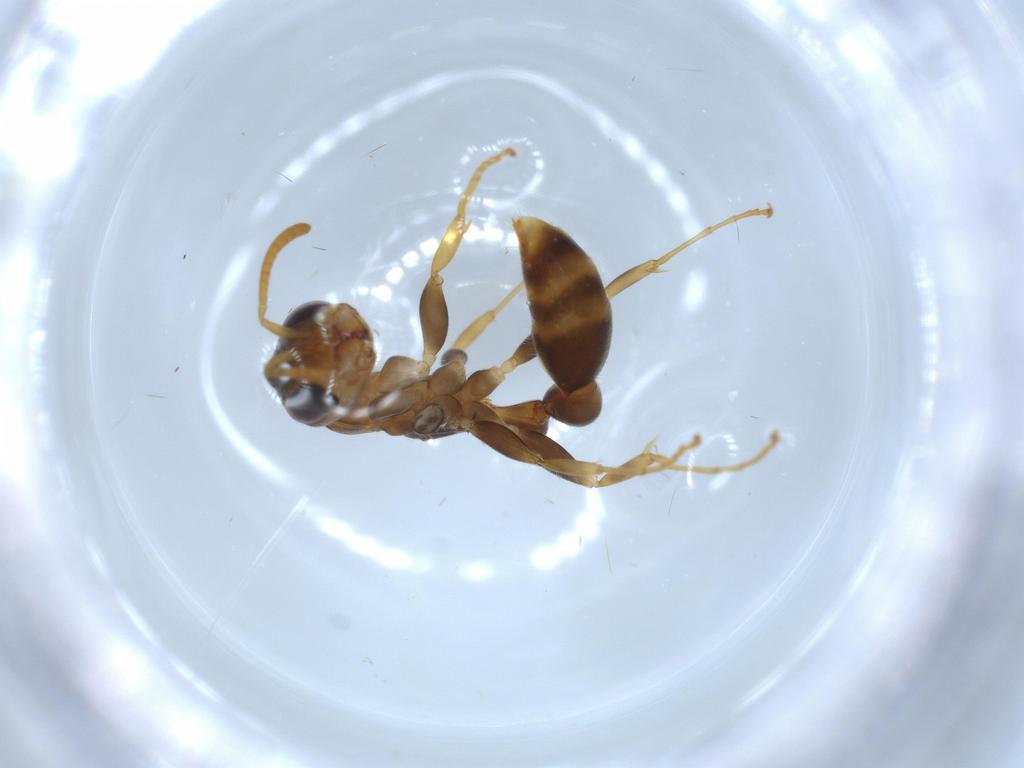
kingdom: Animalia
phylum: Arthropoda
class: Insecta
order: Hymenoptera
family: Formicidae
